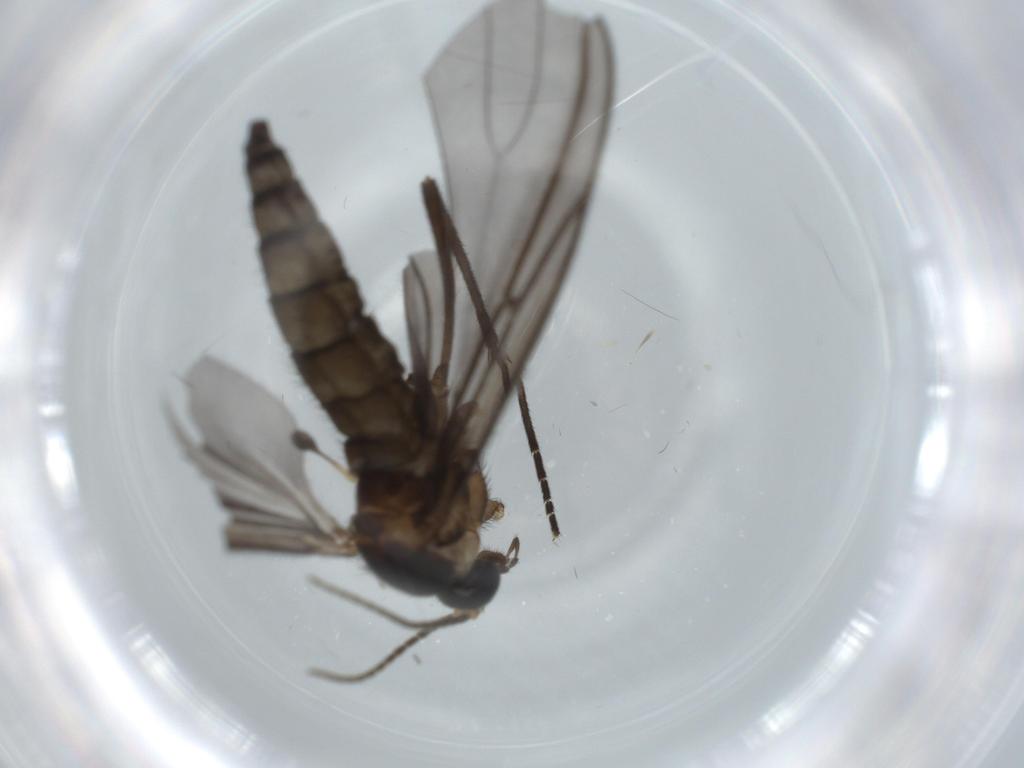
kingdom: Animalia
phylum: Arthropoda
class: Insecta
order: Diptera
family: Sciaridae
